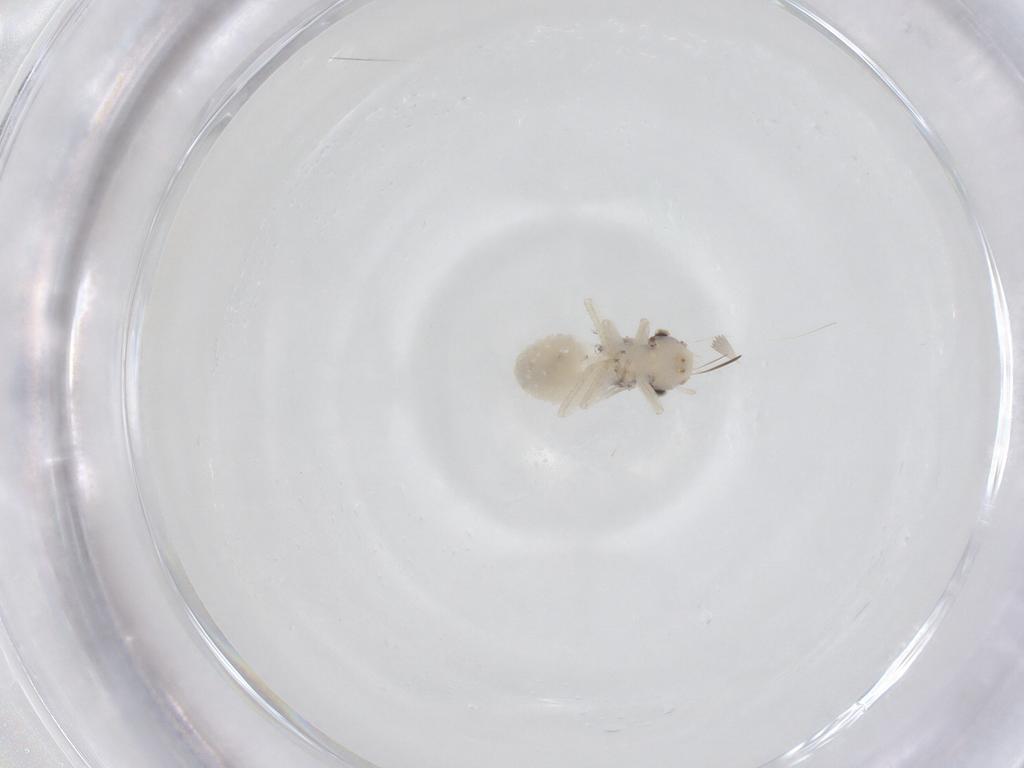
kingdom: Animalia
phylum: Arthropoda
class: Insecta
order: Psocodea
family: Pseudocaeciliidae
